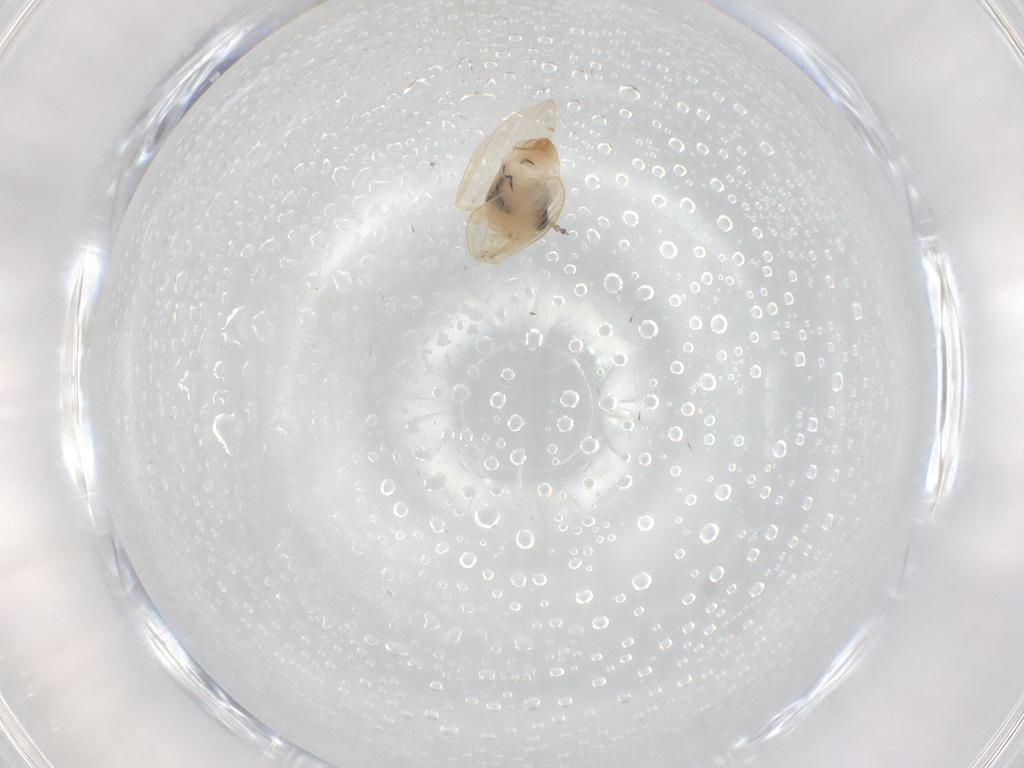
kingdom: Animalia
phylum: Arthropoda
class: Insecta
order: Diptera
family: Psychodidae
